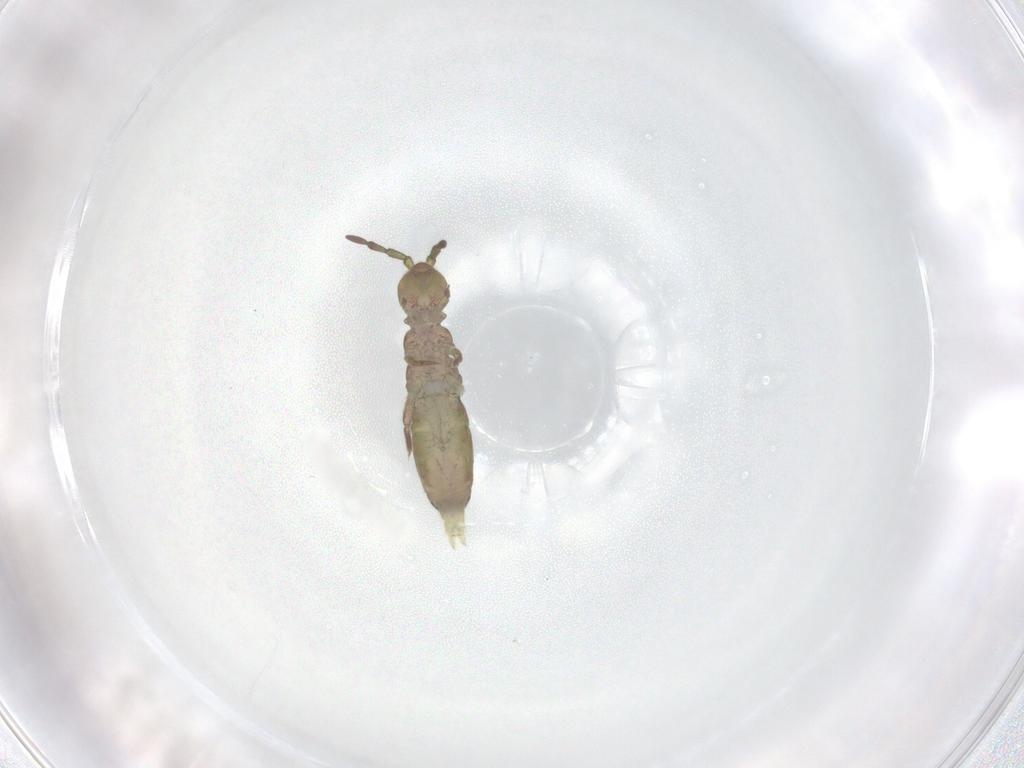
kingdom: Animalia
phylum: Arthropoda
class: Collembola
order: Entomobryomorpha
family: Isotomidae
